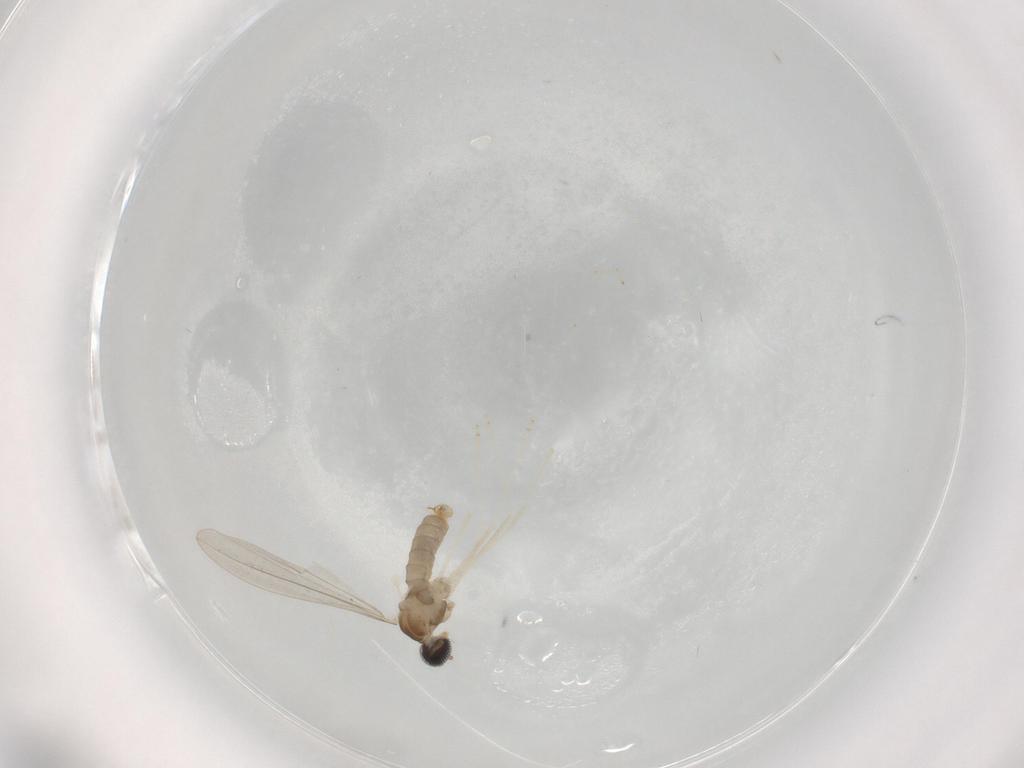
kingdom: Animalia
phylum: Arthropoda
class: Insecta
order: Diptera
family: Cecidomyiidae
